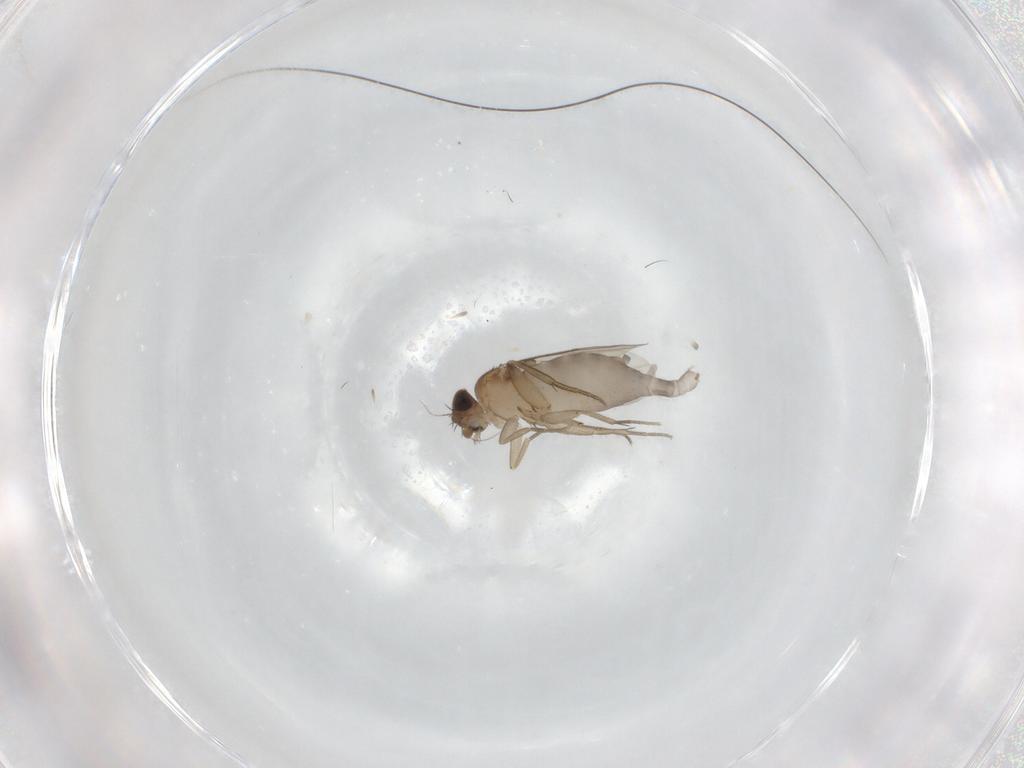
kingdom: Animalia
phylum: Arthropoda
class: Insecta
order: Diptera
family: Phoridae
